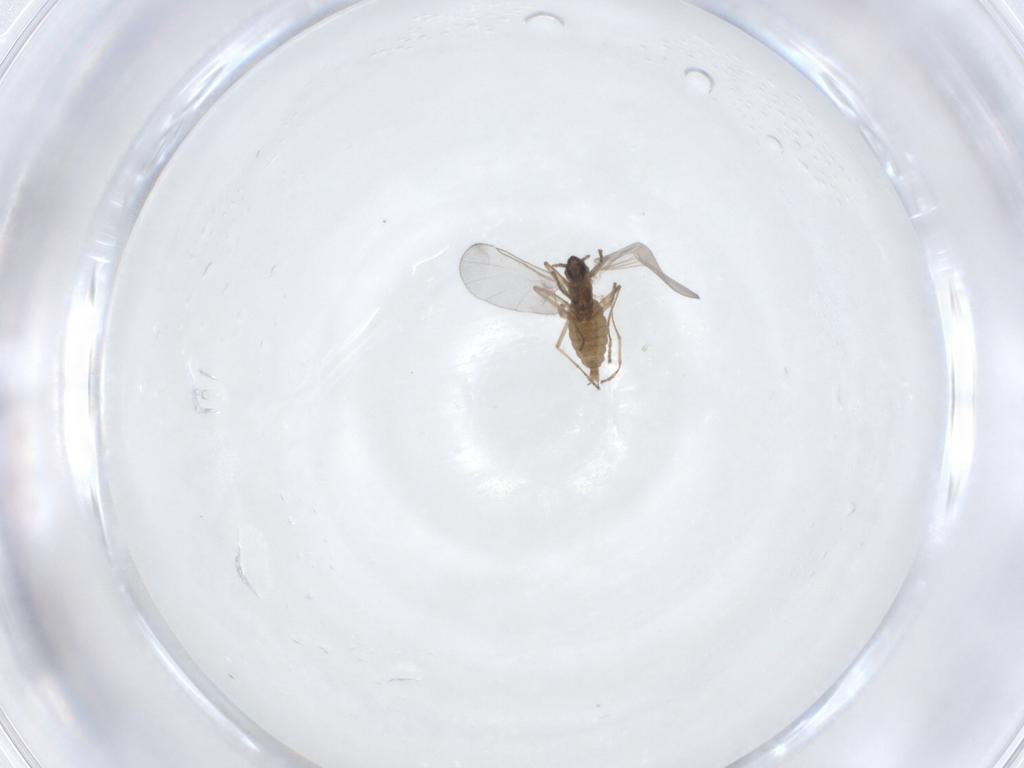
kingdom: Animalia
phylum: Arthropoda
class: Insecta
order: Diptera
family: Cecidomyiidae
